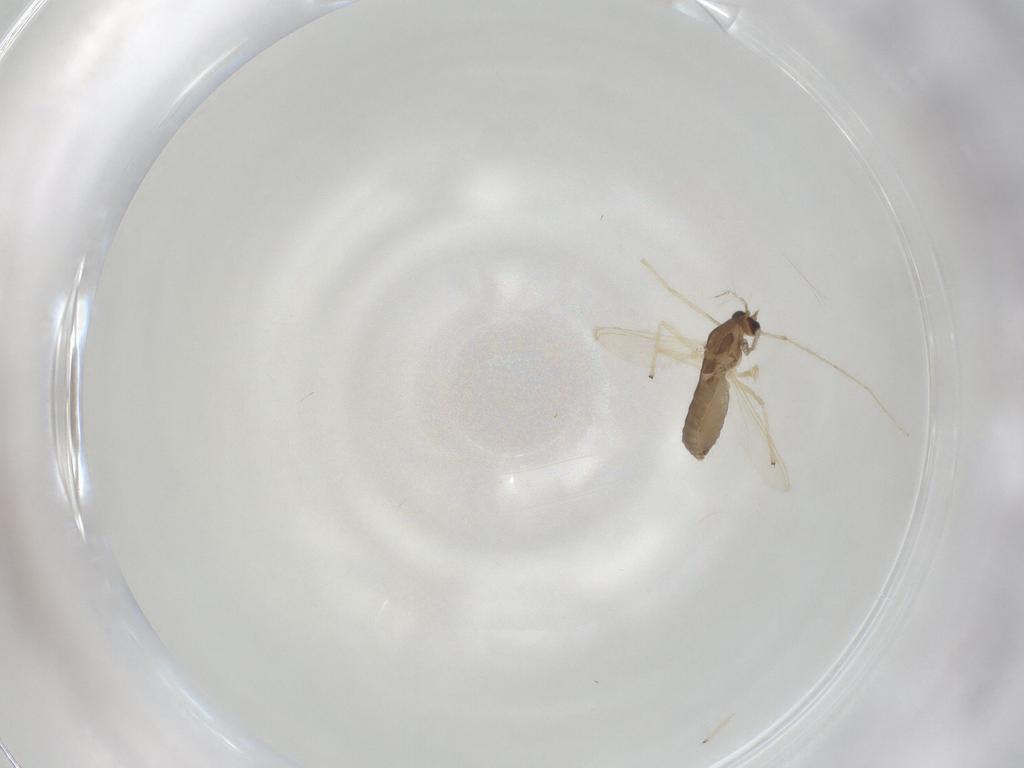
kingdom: Animalia
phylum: Arthropoda
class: Insecta
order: Diptera
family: Chironomidae
